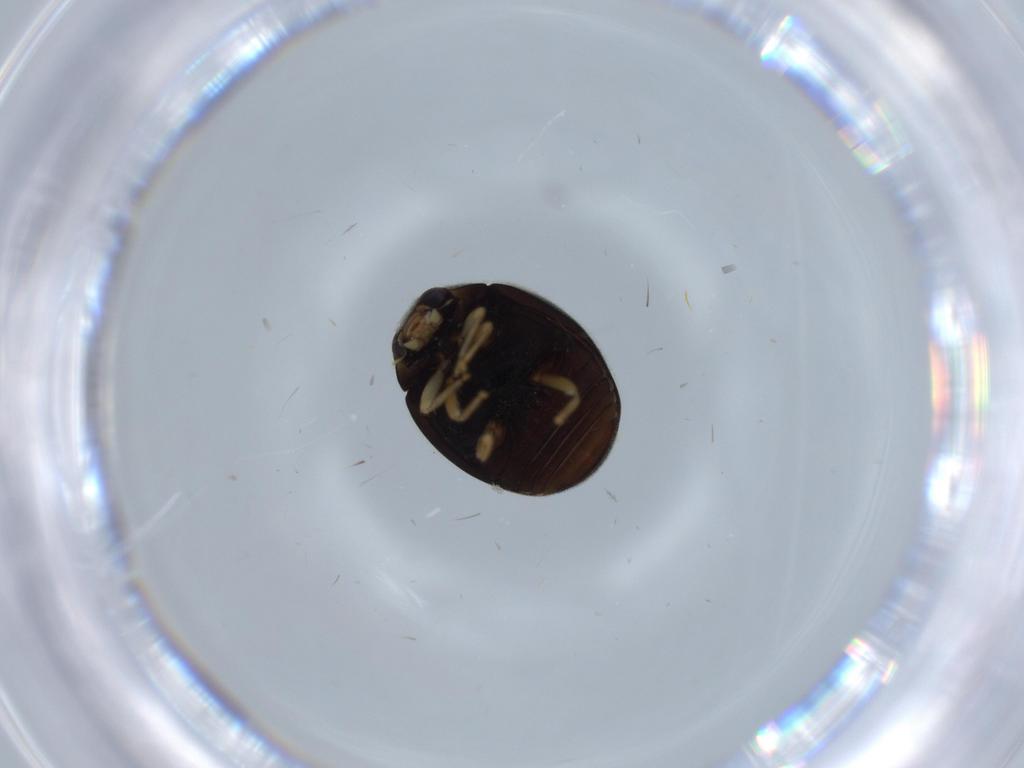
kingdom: Animalia
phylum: Arthropoda
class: Insecta
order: Coleoptera
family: Coccinellidae
